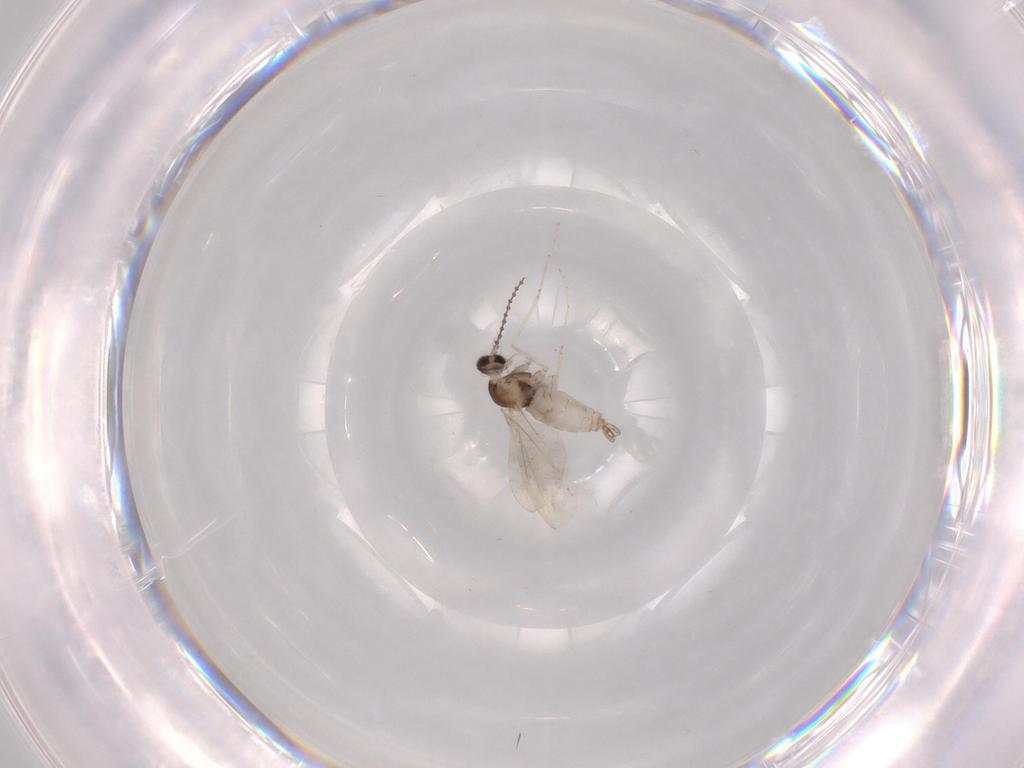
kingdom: Animalia
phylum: Arthropoda
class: Insecta
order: Diptera
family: Cecidomyiidae
